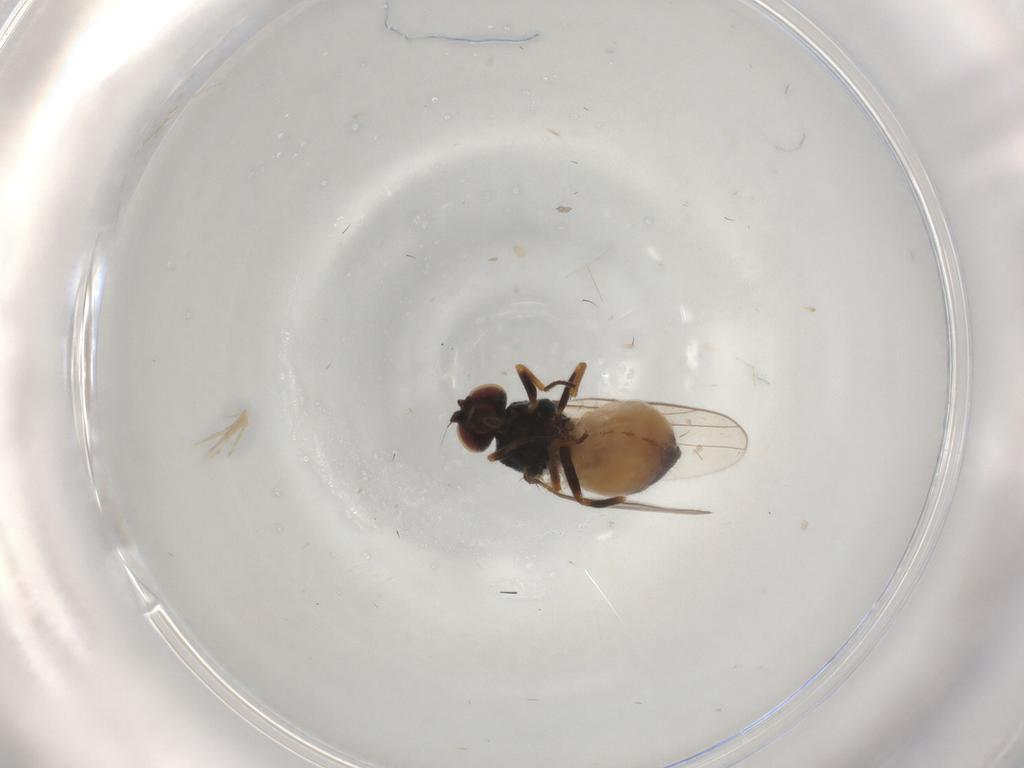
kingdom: Animalia
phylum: Arthropoda
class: Insecta
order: Diptera
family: Chloropidae
